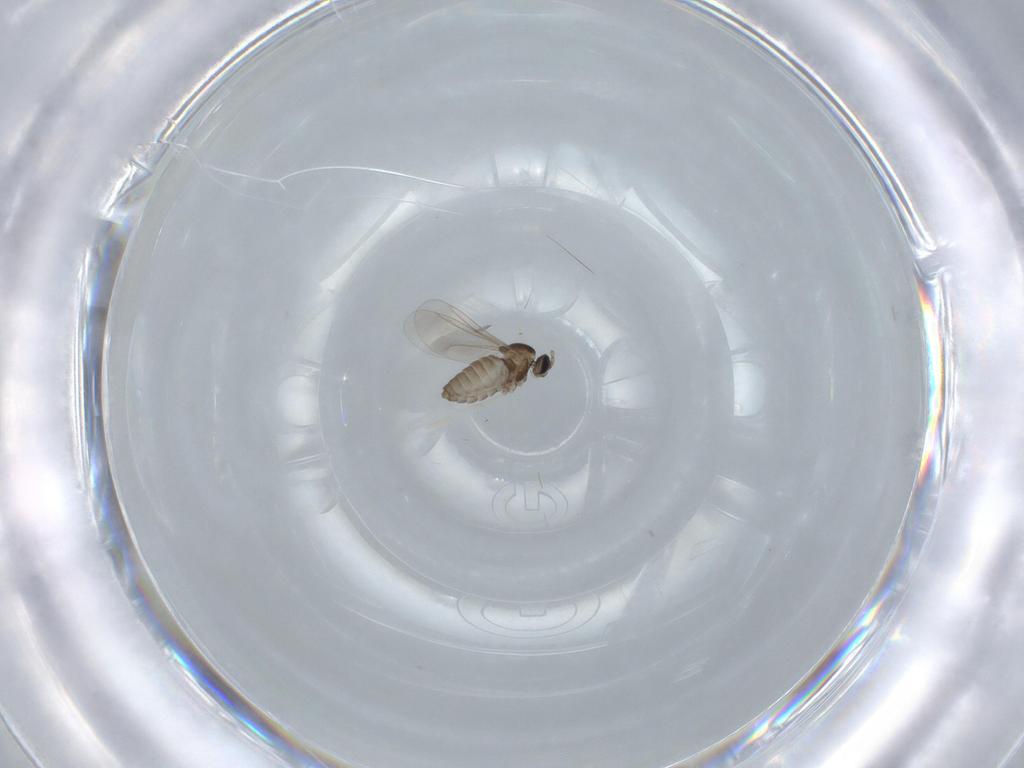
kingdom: Animalia
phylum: Arthropoda
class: Insecta
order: Diptera
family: Cecidomyiidae
